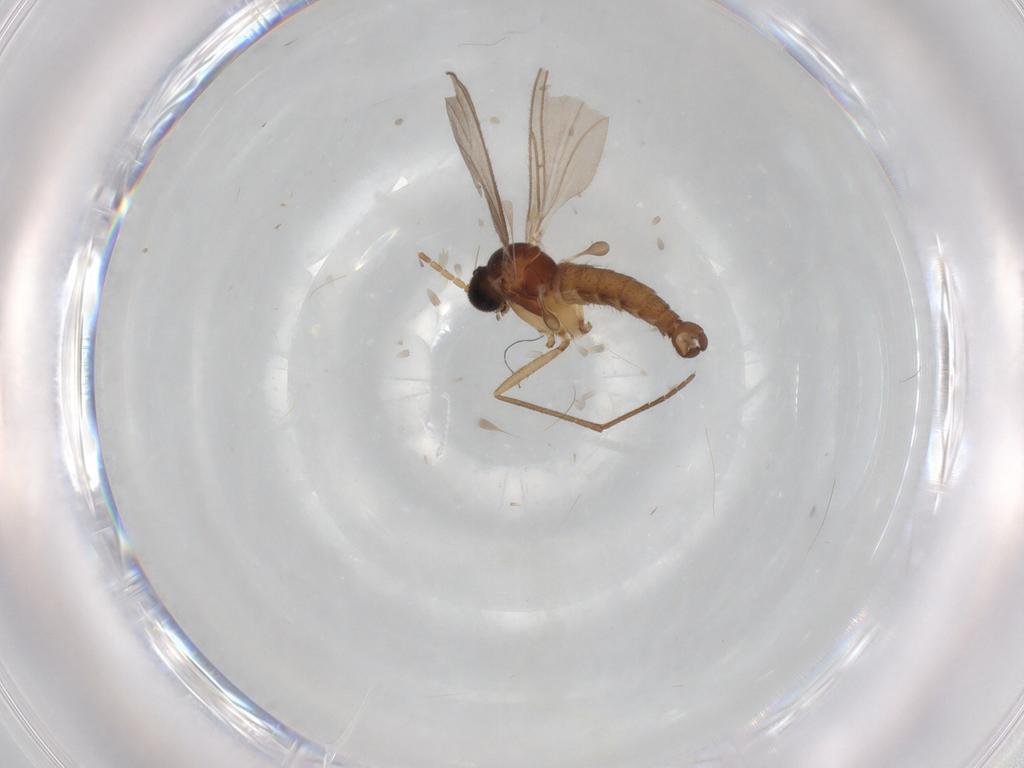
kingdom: Animalia
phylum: Arthropoda
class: Insecta
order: Diptera
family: Sciaridae
